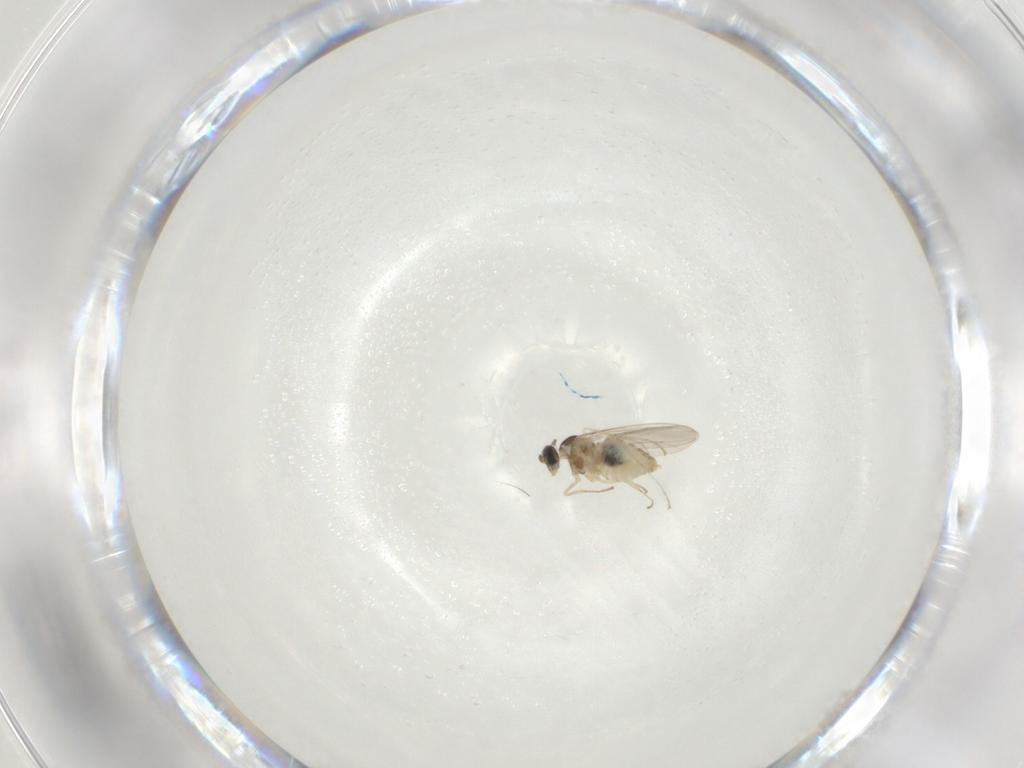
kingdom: Animalia
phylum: Arthropoda
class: Insecta
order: Diptera
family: Cecidomyiidae
